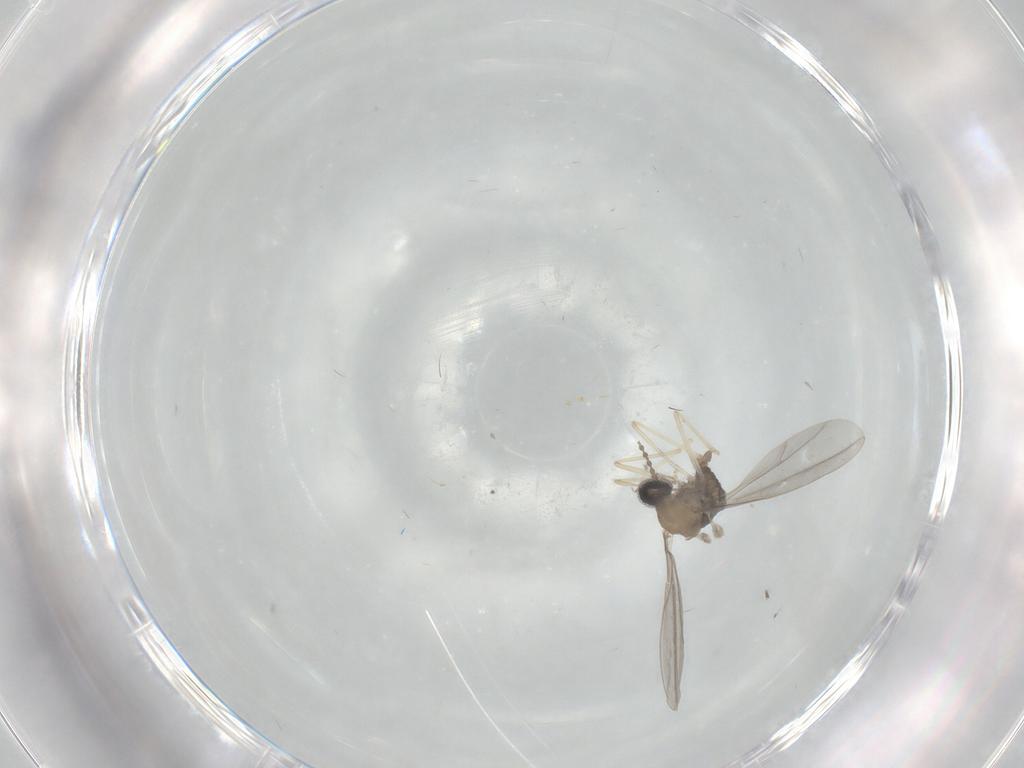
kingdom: Animalia
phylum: Arthropoda
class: Insecta
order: Diptera
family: Cecidomyiidae
